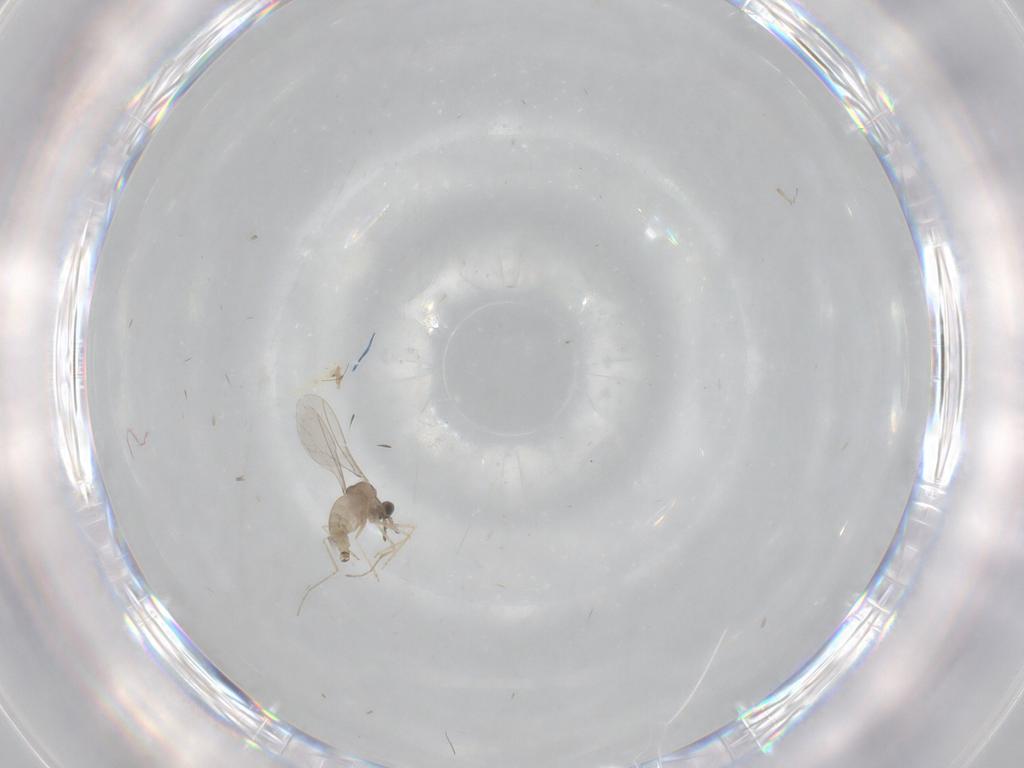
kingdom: Animalia
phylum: Arthropoda
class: Insecta
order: Diptera
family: Cecidomyiidae
